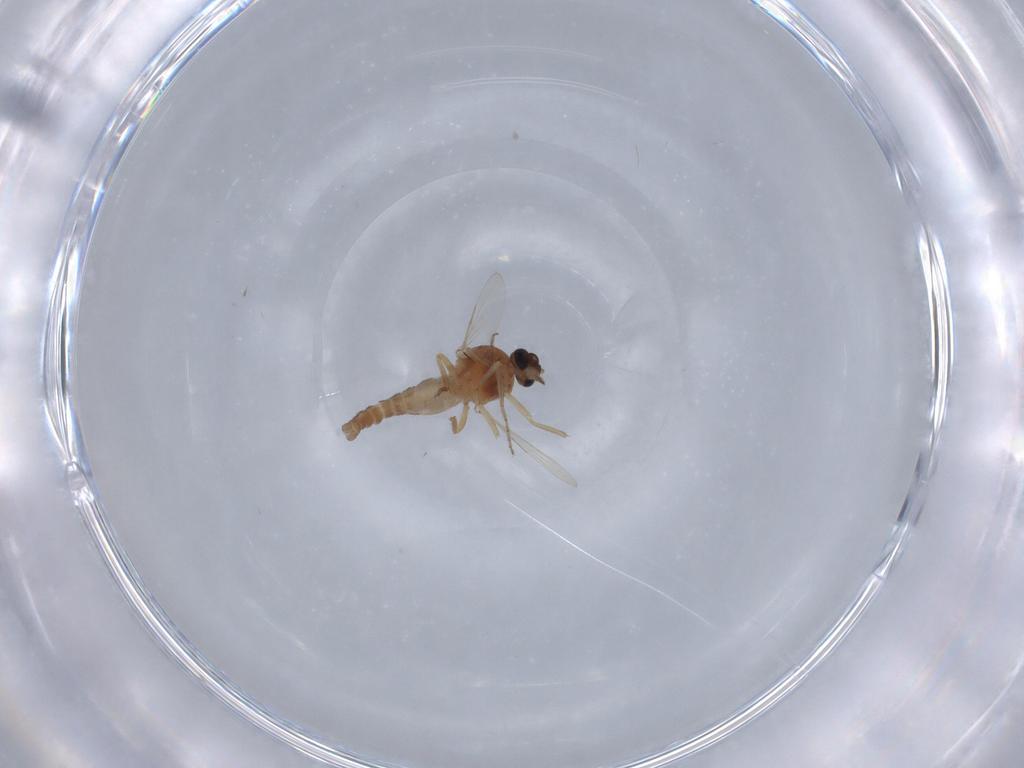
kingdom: Animalia
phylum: Arthropoda
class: Insecta
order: Diptera
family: Ceratopogonidae
